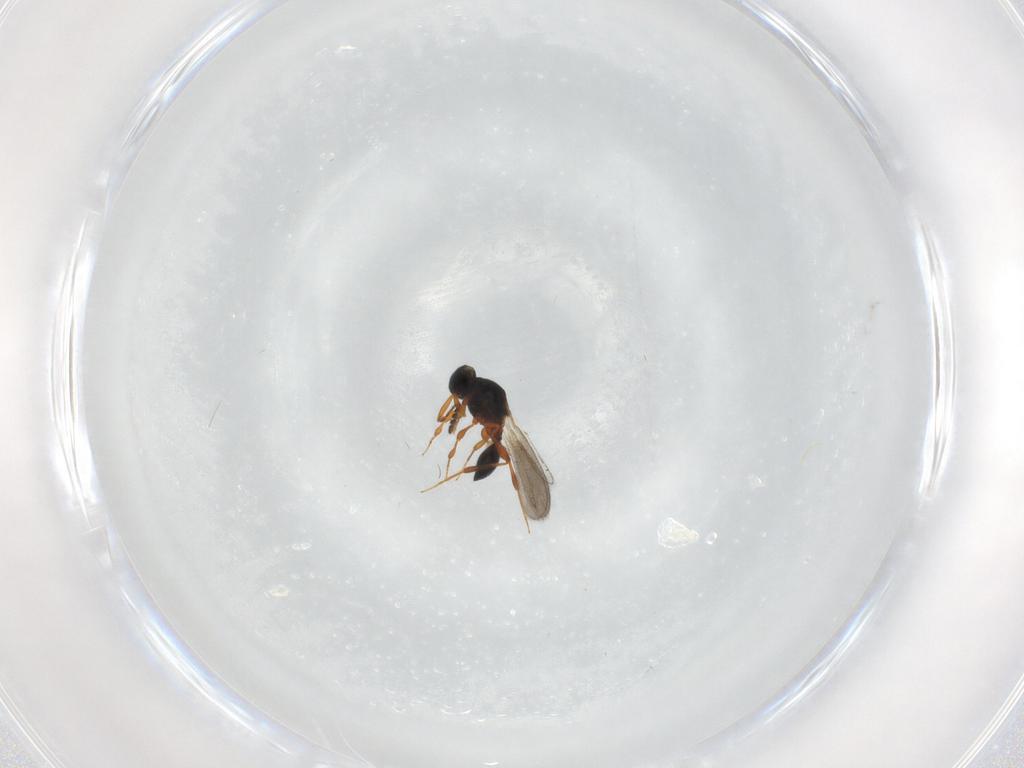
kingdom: Animalia
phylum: Arthropoda
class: Insecta
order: Hymenoptera
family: Platygastridae
